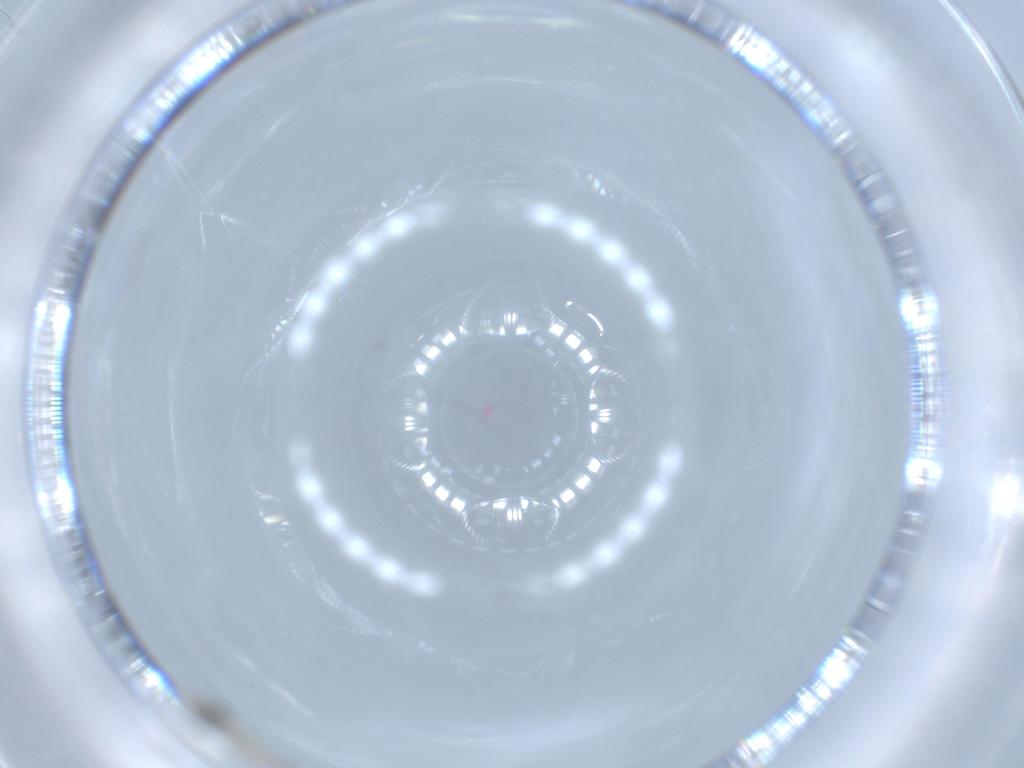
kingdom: Animalia
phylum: Arthropoda
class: Insecta
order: Psocodea
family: Caeciliusidae
